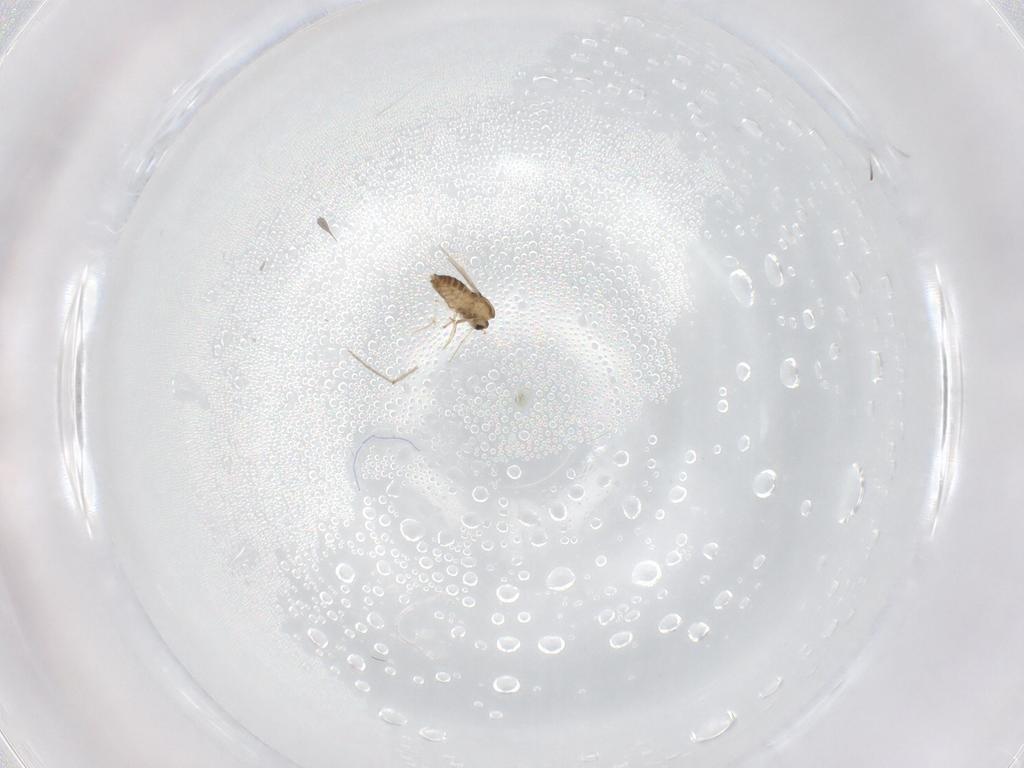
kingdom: Animalia
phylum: Arthropoda
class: Insecta
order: Diptera
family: Chironomidae
